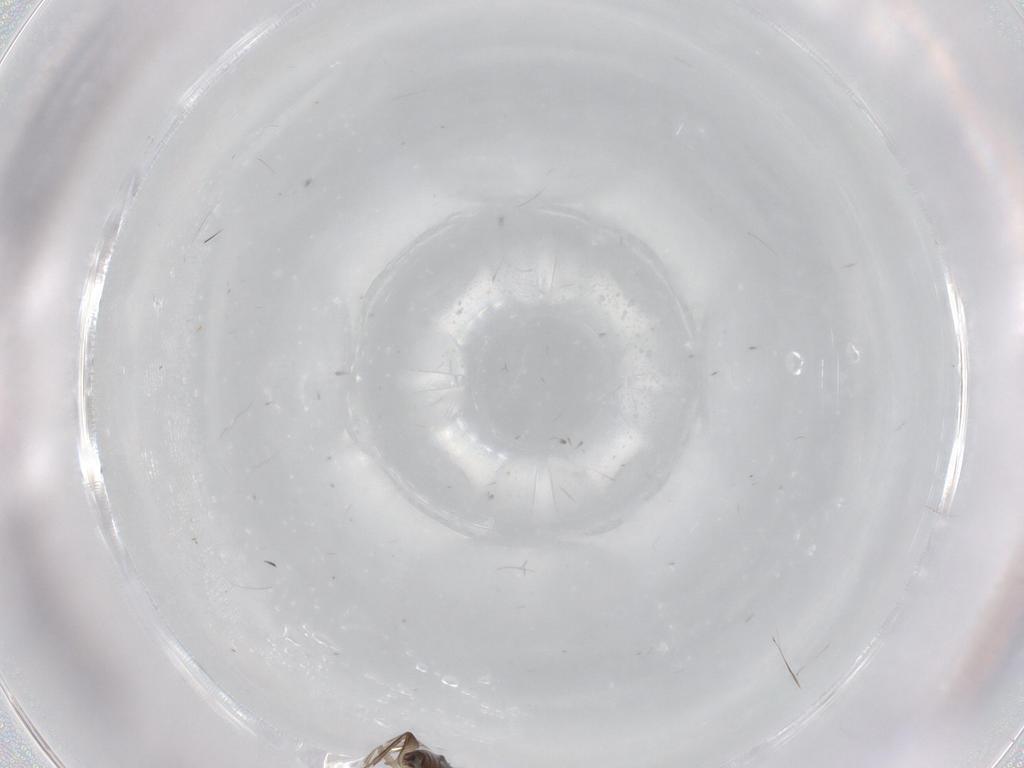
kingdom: Animalia
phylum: Arthropoda
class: Insecta
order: Diptera
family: Phoridae
